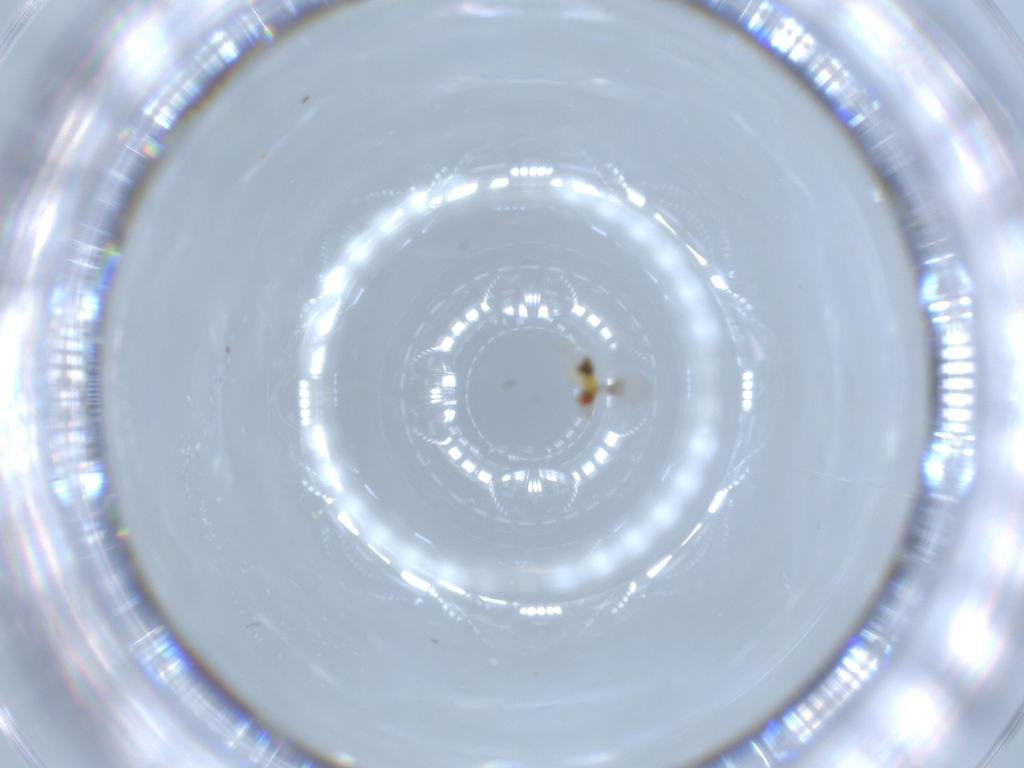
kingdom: Animalia
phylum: Arthropoda
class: Insecta
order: Hymenoptera
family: Trichogrammatidae
